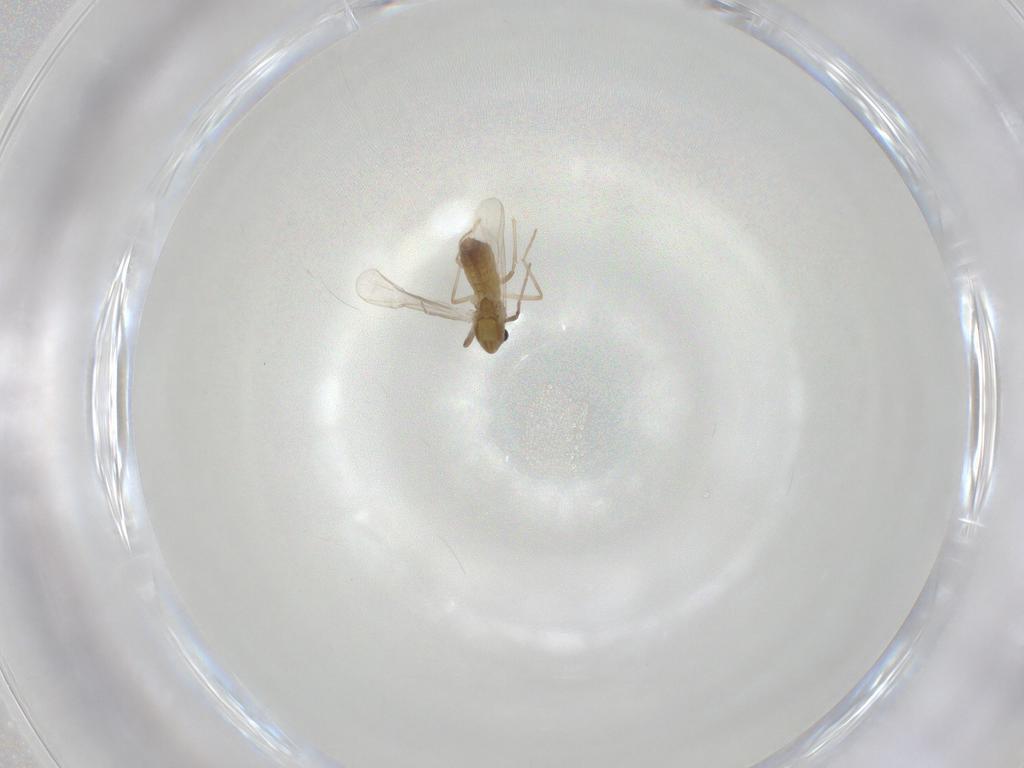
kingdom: Animalia
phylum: Arthropoda
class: Insecta
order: Diptera
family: Chironomidae
